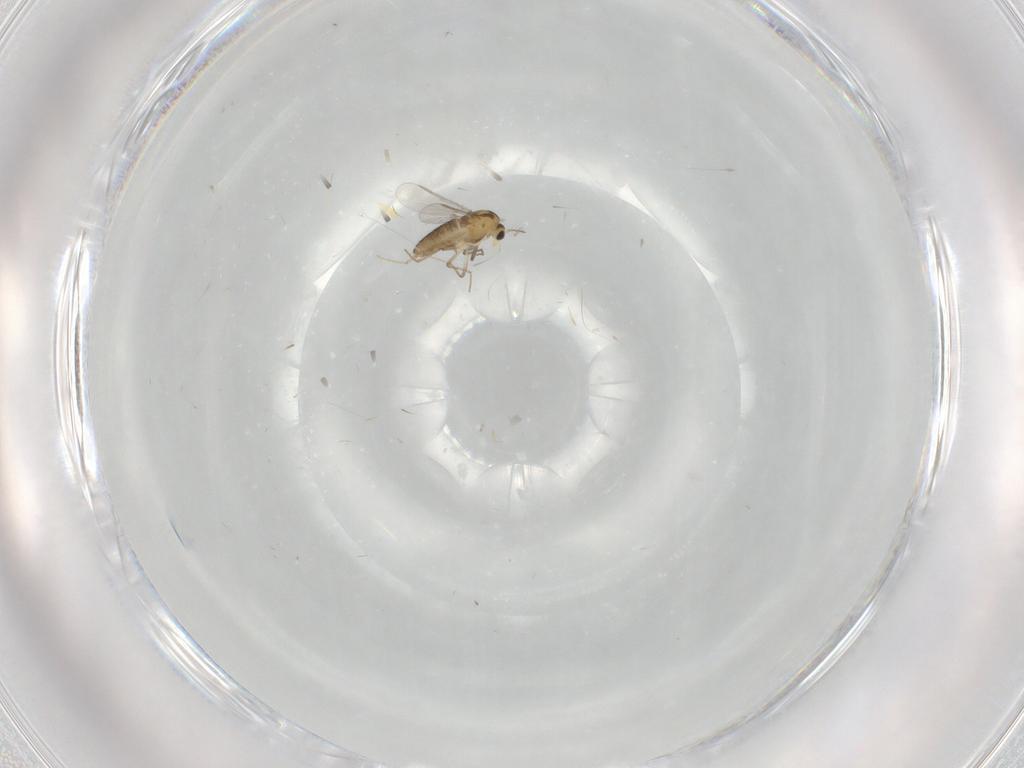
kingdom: Animalia
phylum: Arthropoda
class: Insecta
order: Diptera
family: Chironomidae
